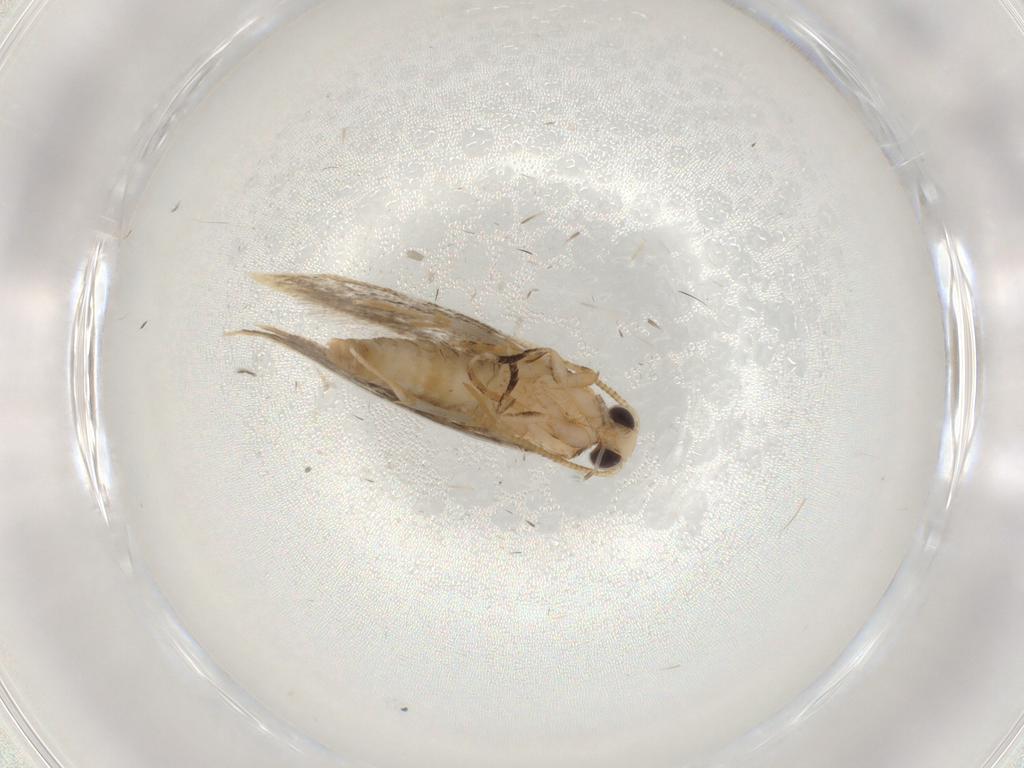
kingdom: Animalia
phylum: Arthropoda
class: Insecta
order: Lepidoptera
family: Tineidae
